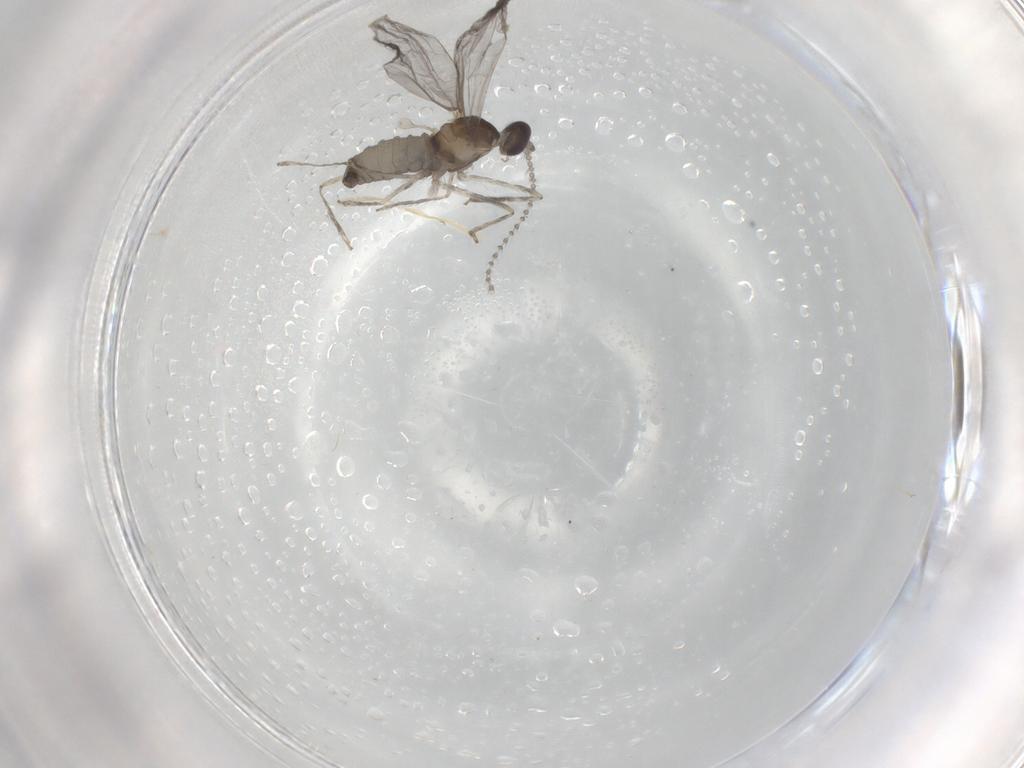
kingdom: Animalia
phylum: Arthropoda
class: Insecta
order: Diptera
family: Cecidomyiidae
